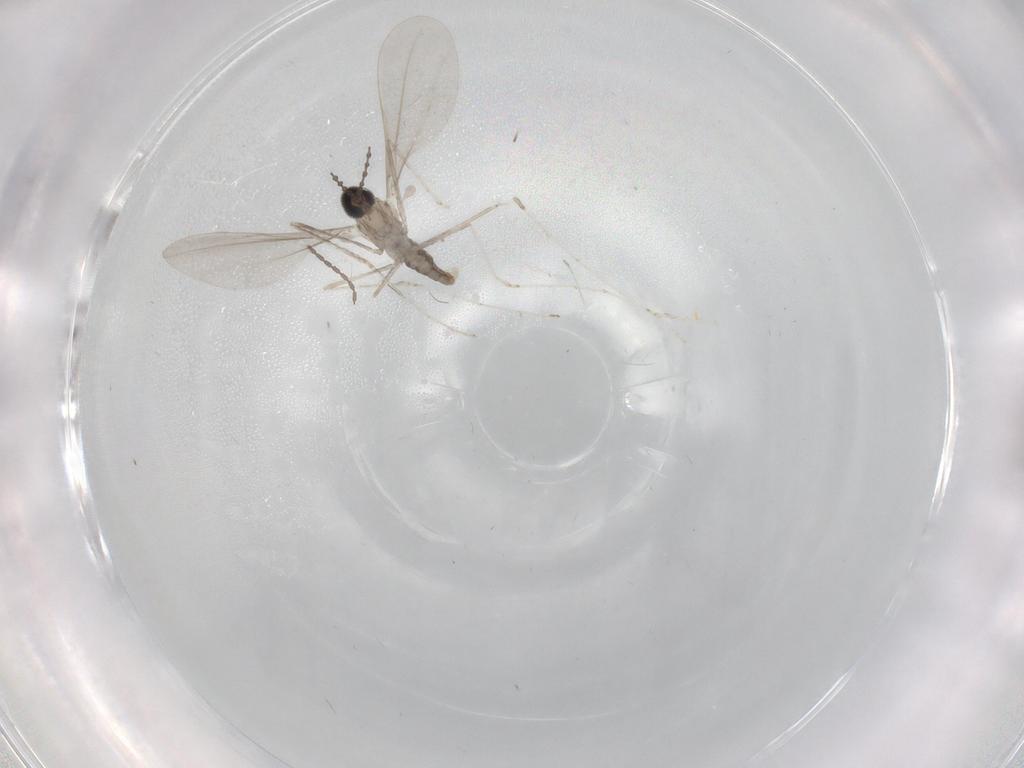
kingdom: Animalia
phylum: Arthropoda
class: Insecta
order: Diptera
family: Cecidomyiidae
